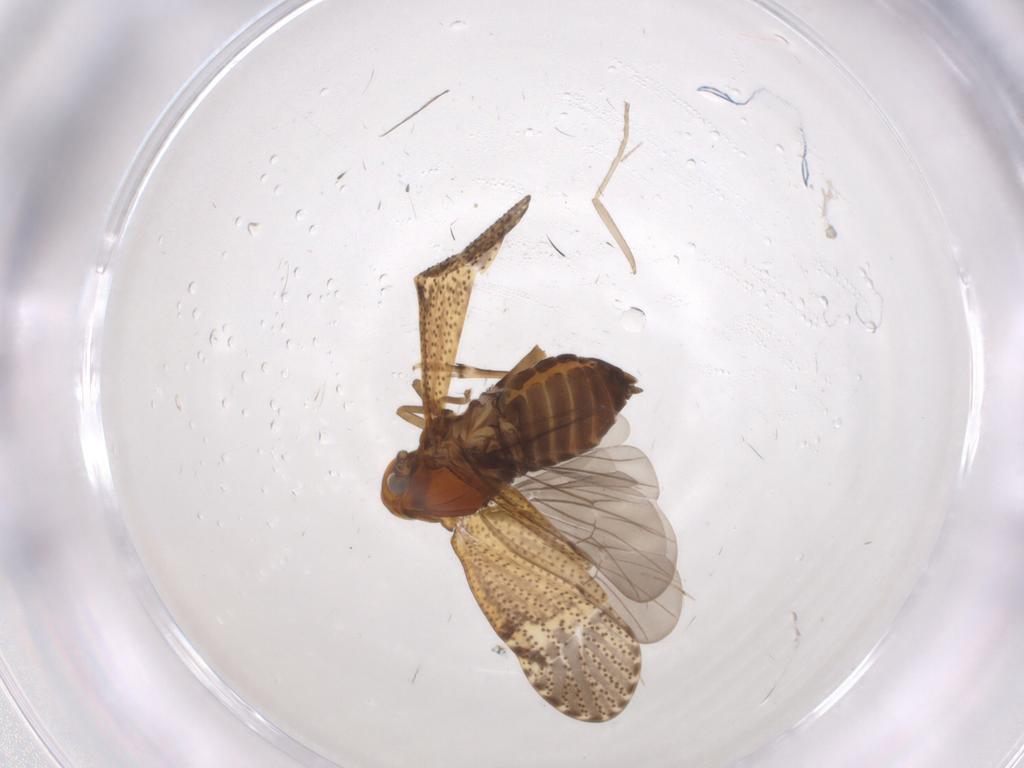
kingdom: Animalia
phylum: Arthropoda
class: Insecta
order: Hemiptera
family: Delphacidae
